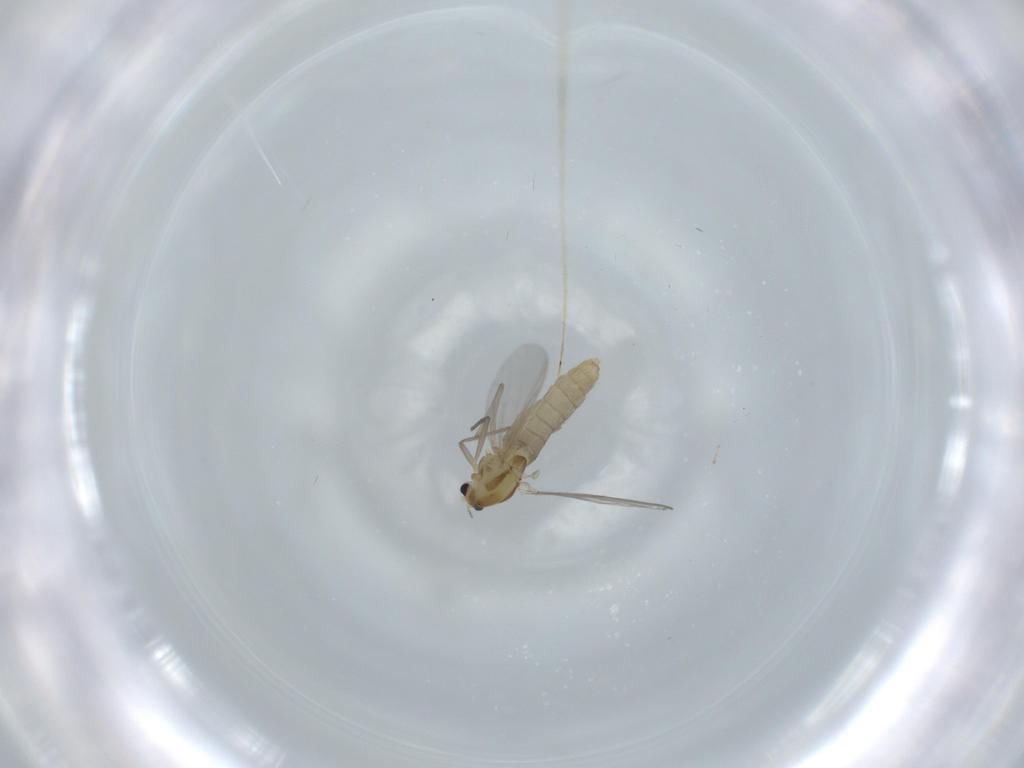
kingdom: Animalia
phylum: Arthropoda
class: Insecta
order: Diptera
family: Chironomidae
